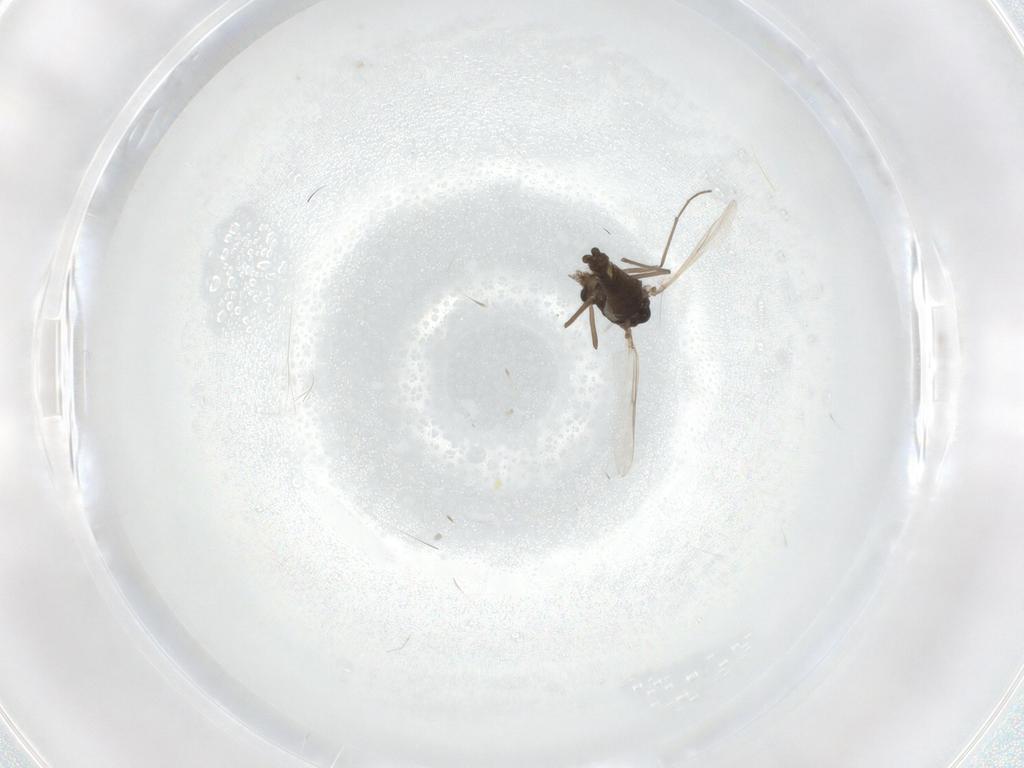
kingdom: Animalia
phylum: Arthropoda
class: Insecta
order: Diptera
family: Chironomidae
